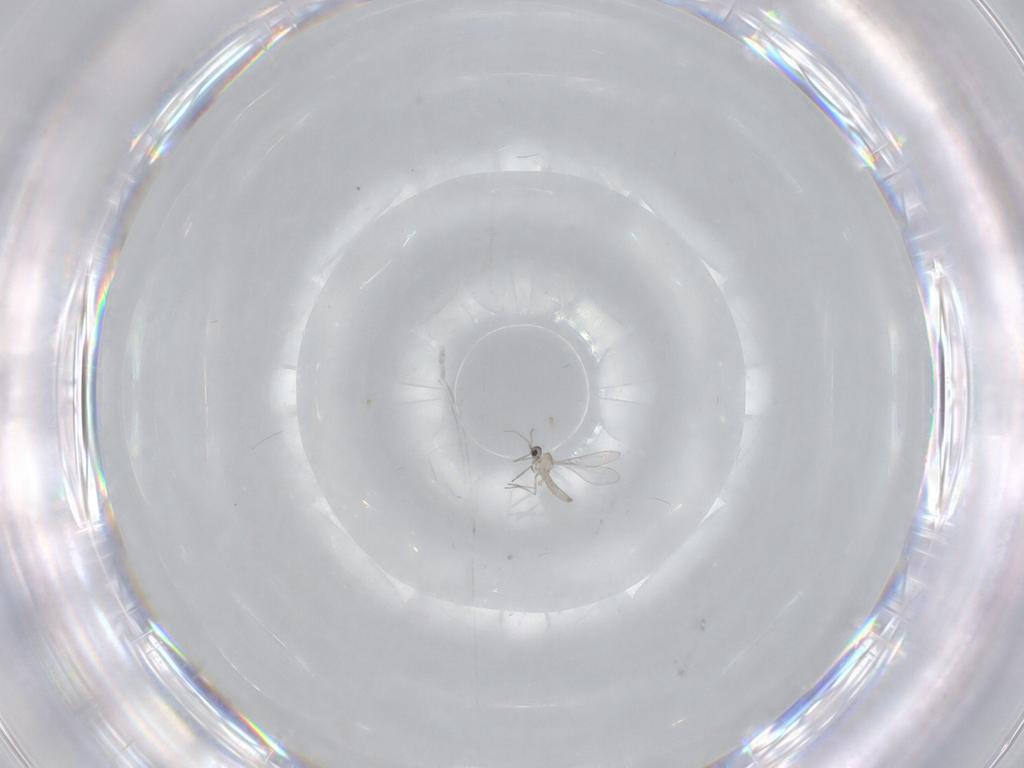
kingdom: Animalia
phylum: Arthropoda
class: Insecta
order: Diptera
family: Cecidomyiidae
